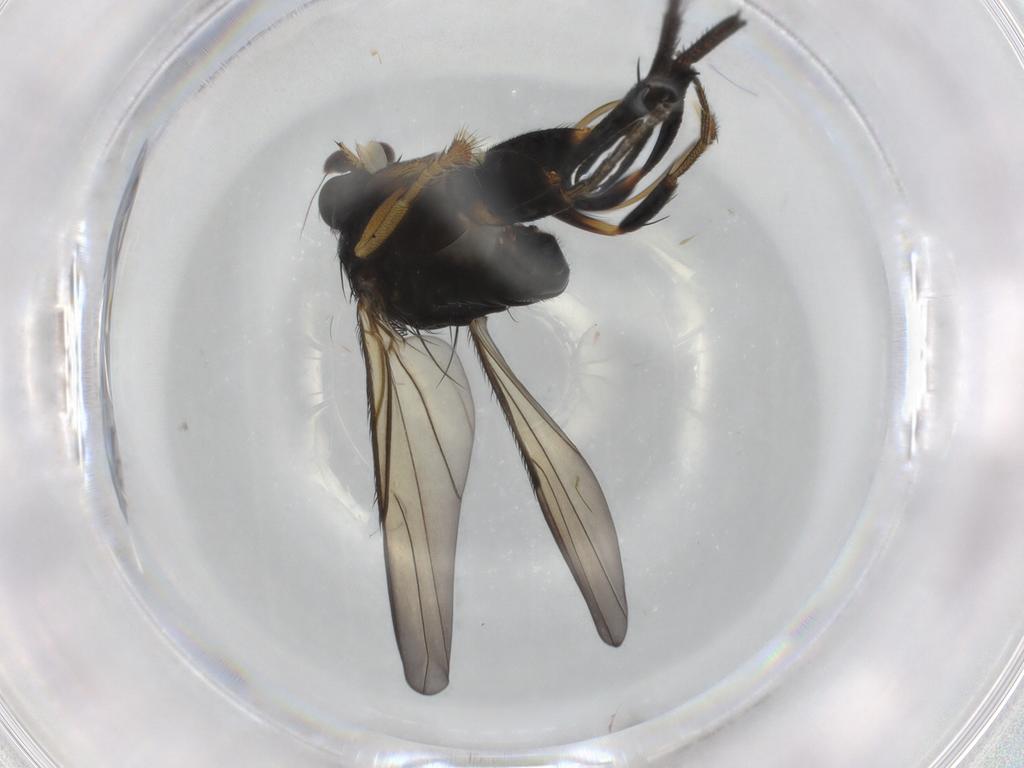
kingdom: Animalia
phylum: Arthropoda
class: Insecta
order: Diptera
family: Phoridae
